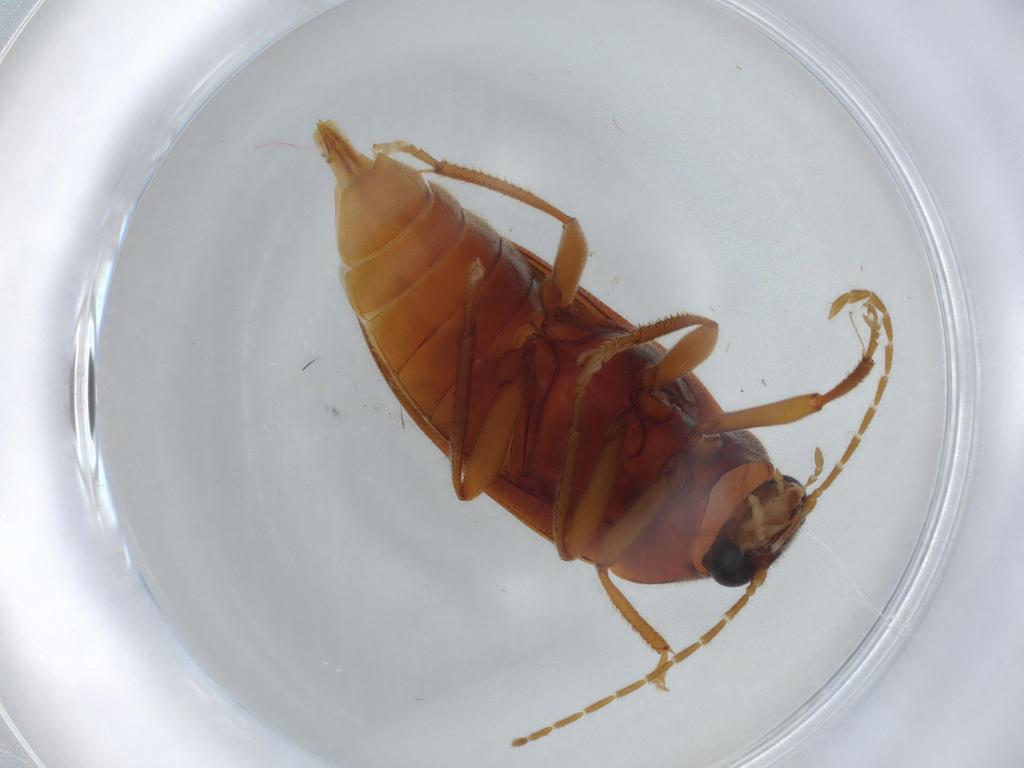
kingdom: Animalia
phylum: Arthropoda
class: Insecta
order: Coleoptera
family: Ptilodactylidae
